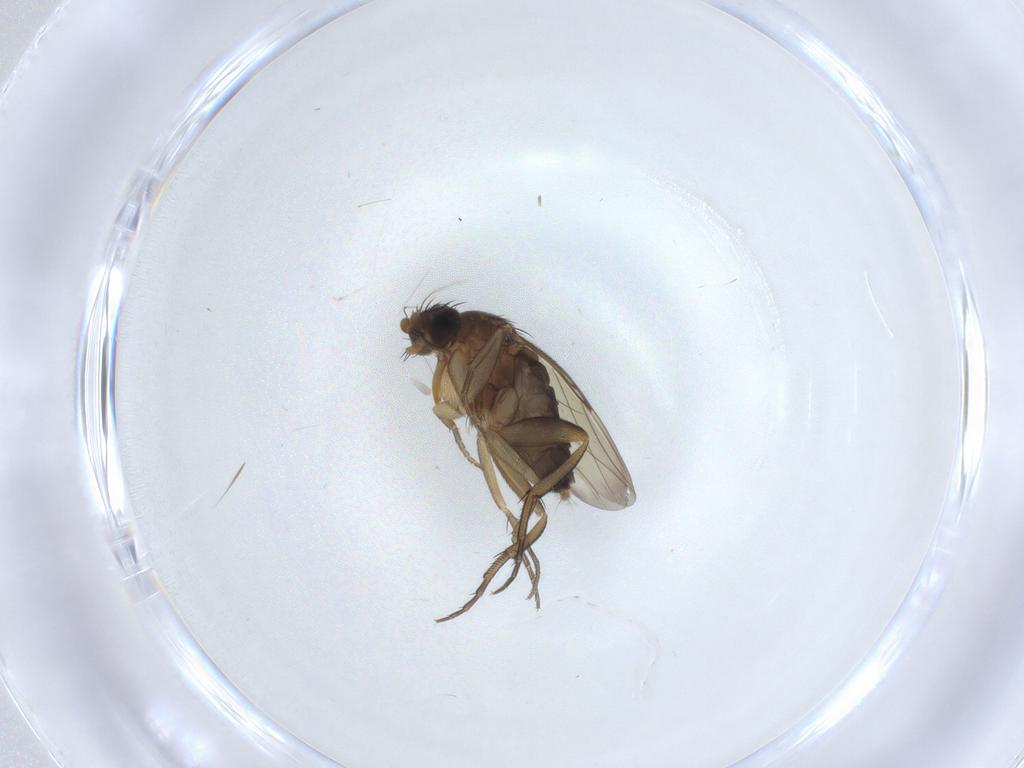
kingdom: Animalia
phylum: Arthropoda
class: Insecta
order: Diptera
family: Phoridae
